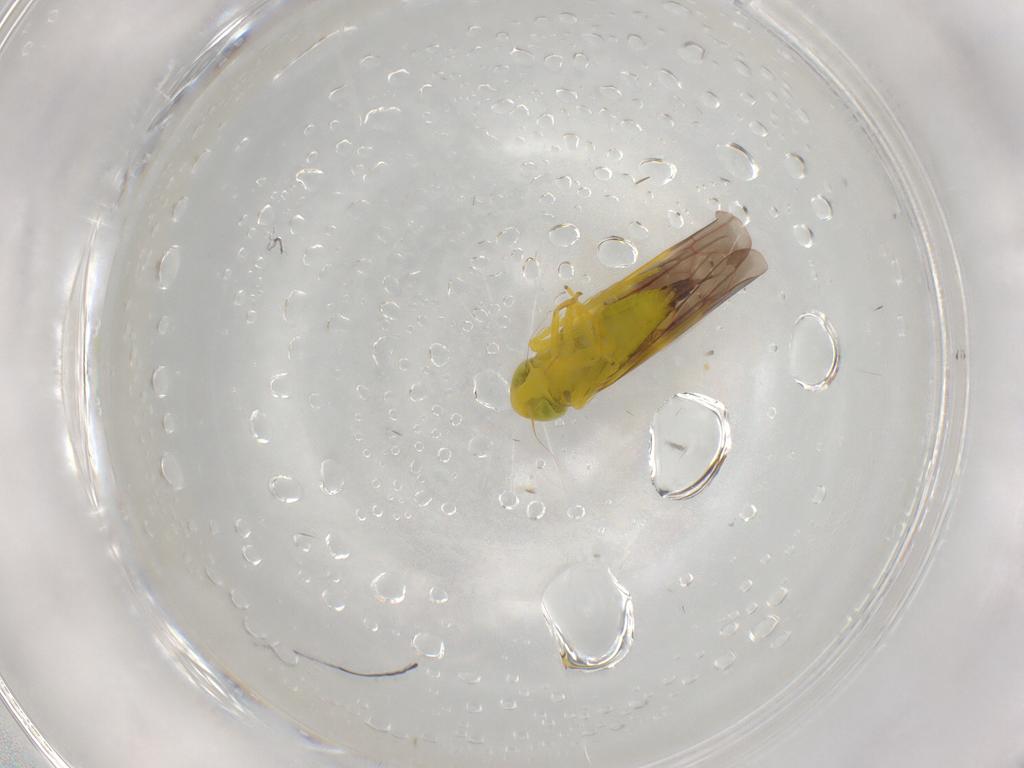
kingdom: Animalia
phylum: Arthropoda
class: Insecta
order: Hemiptera
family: Cicadellidae
